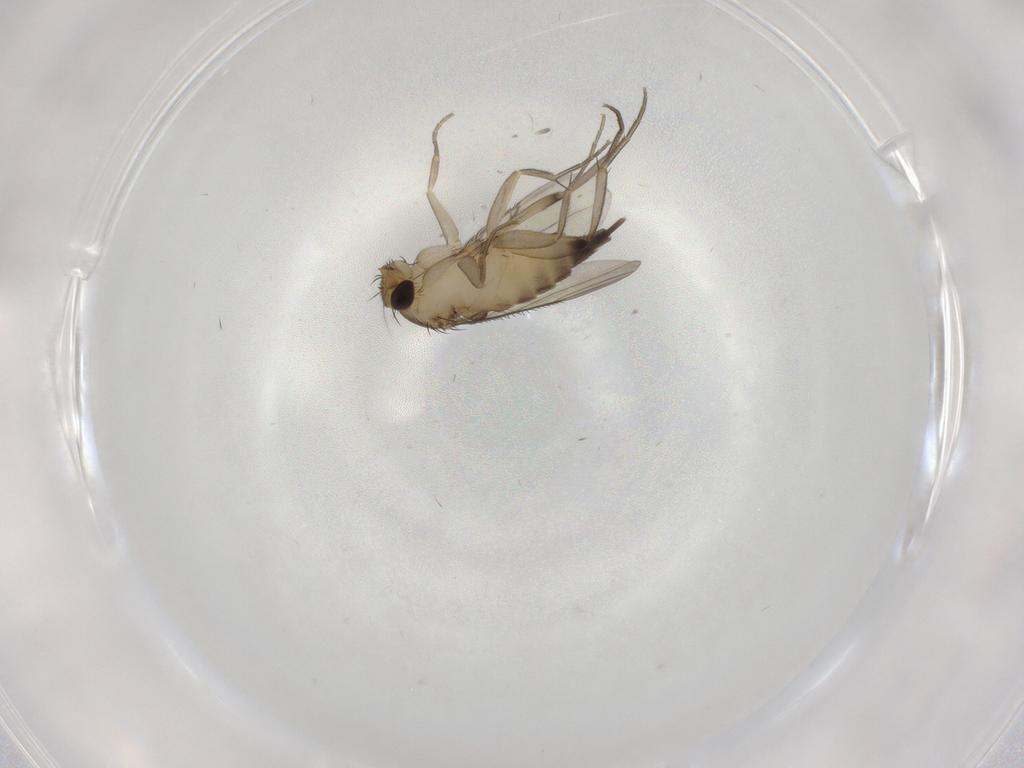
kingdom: Animalia
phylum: Arthropoda
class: Insecta
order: Diptera
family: Phoridae
